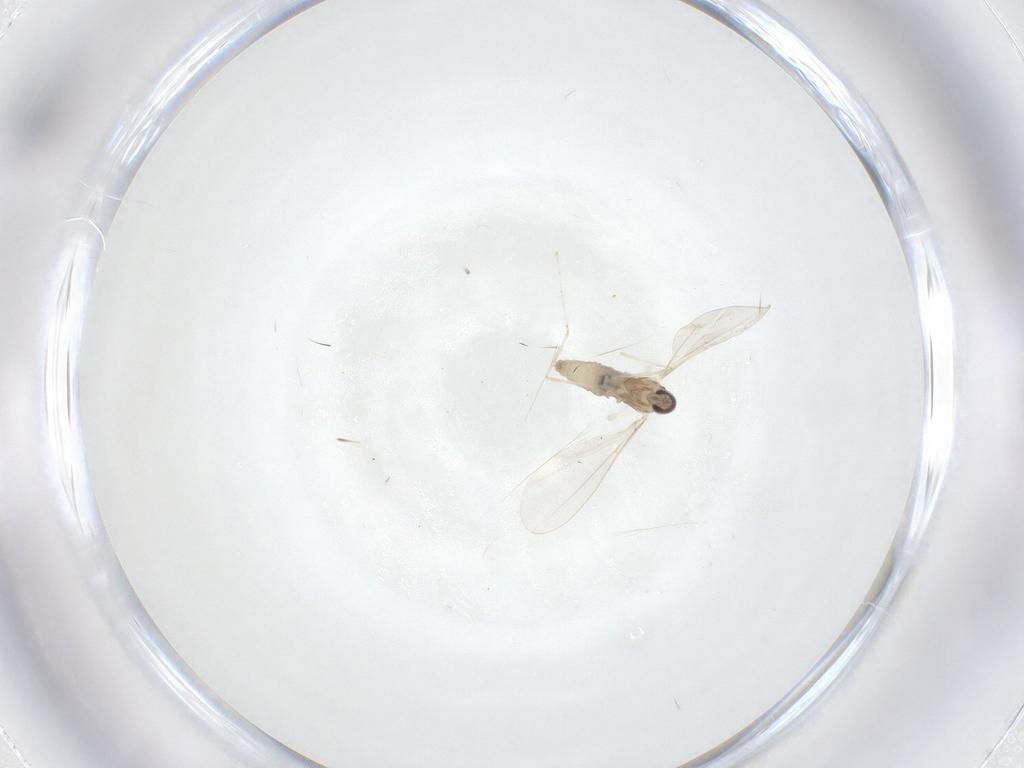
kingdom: Animalia
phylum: Arthropoda
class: Insecta
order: Diptera
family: Cecidomyiidae
